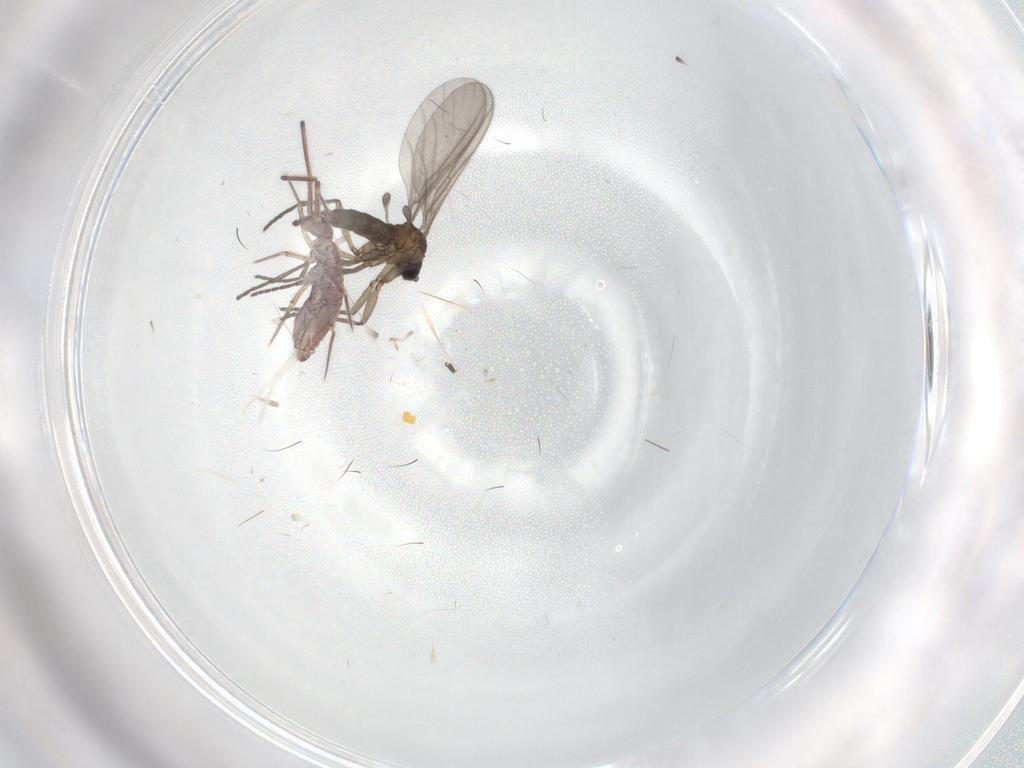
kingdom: Animalia
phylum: Arthropoda
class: Insecta
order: Diptera
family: Sciaridae
